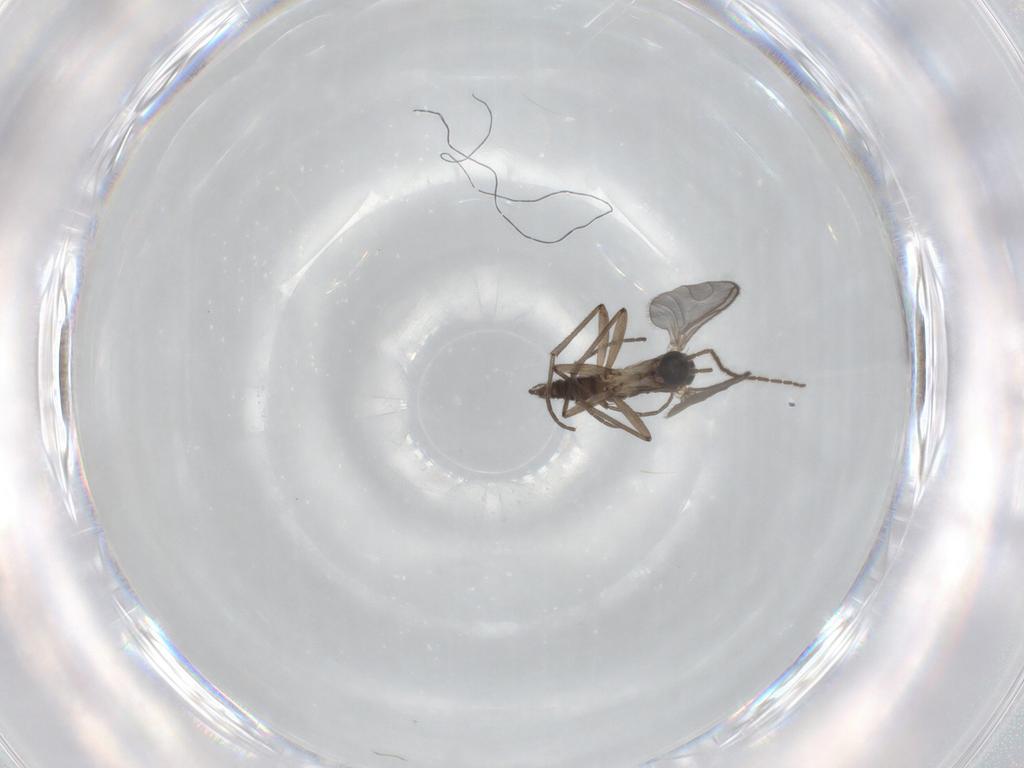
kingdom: Animalia
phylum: Arthropoda
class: Insecta
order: Diptera
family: Sciaridae
